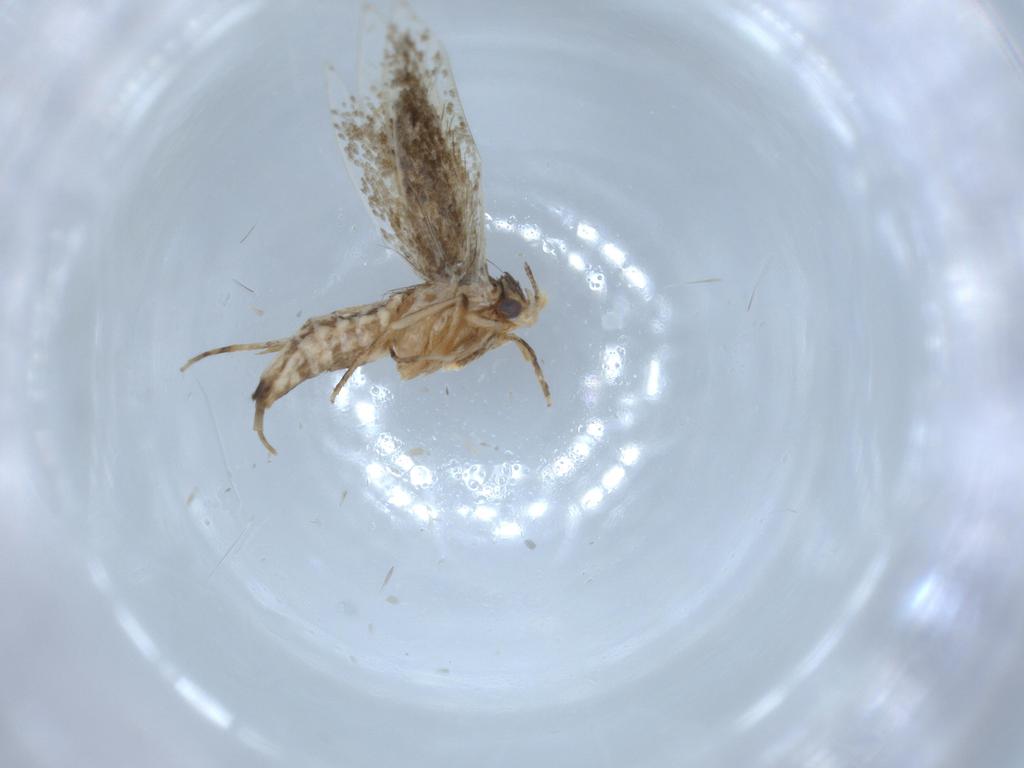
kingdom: Animalia
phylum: Arthropoda
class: Insecta
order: Lepidoptera
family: Tineidae
